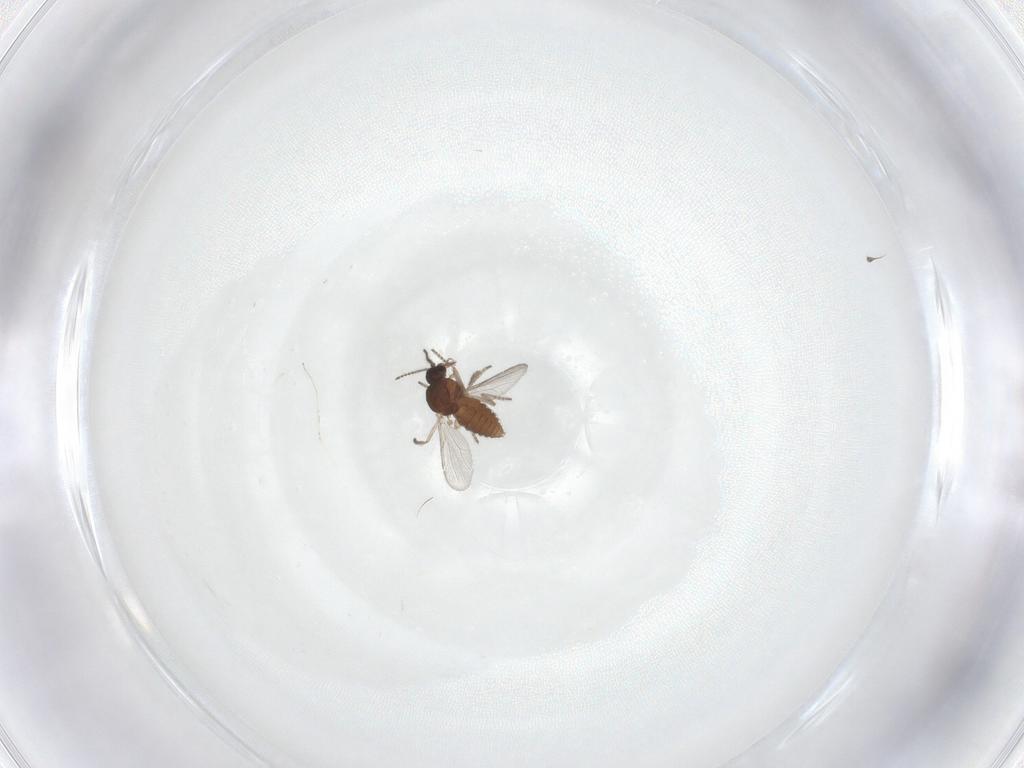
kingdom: Animalia
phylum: Arthropoda
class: Insecta
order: Diptera
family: Ceratopogonidae
